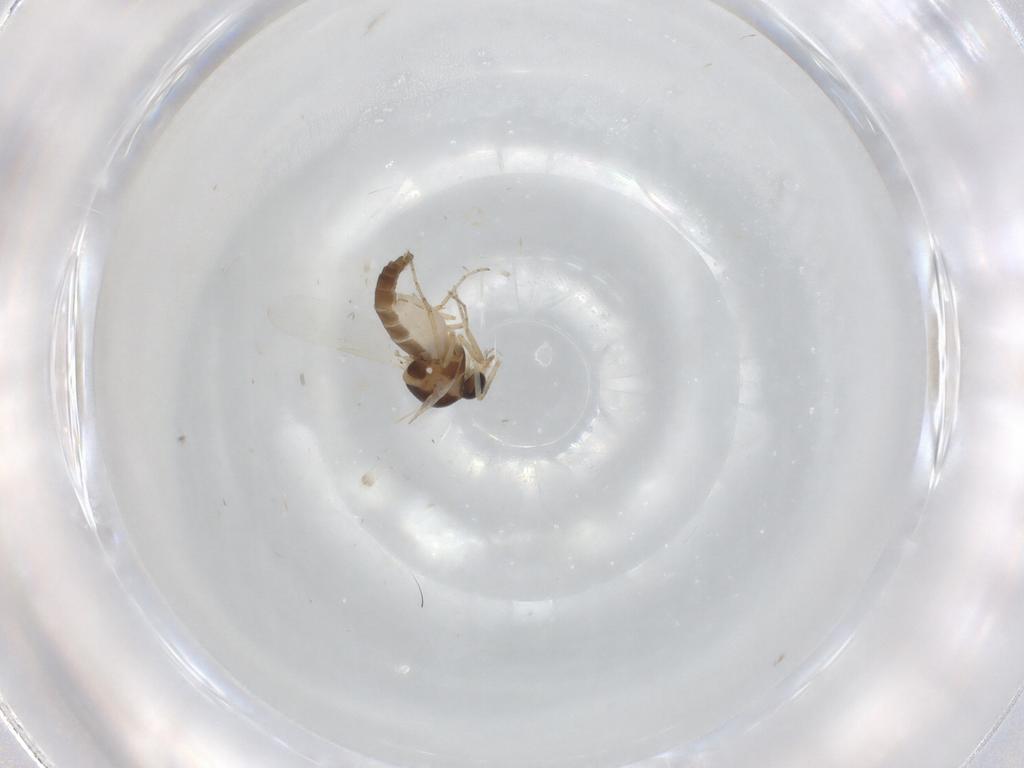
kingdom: Animalia
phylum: Arthropoda
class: Insecta
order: Diptera
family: Ceratopogonidae
